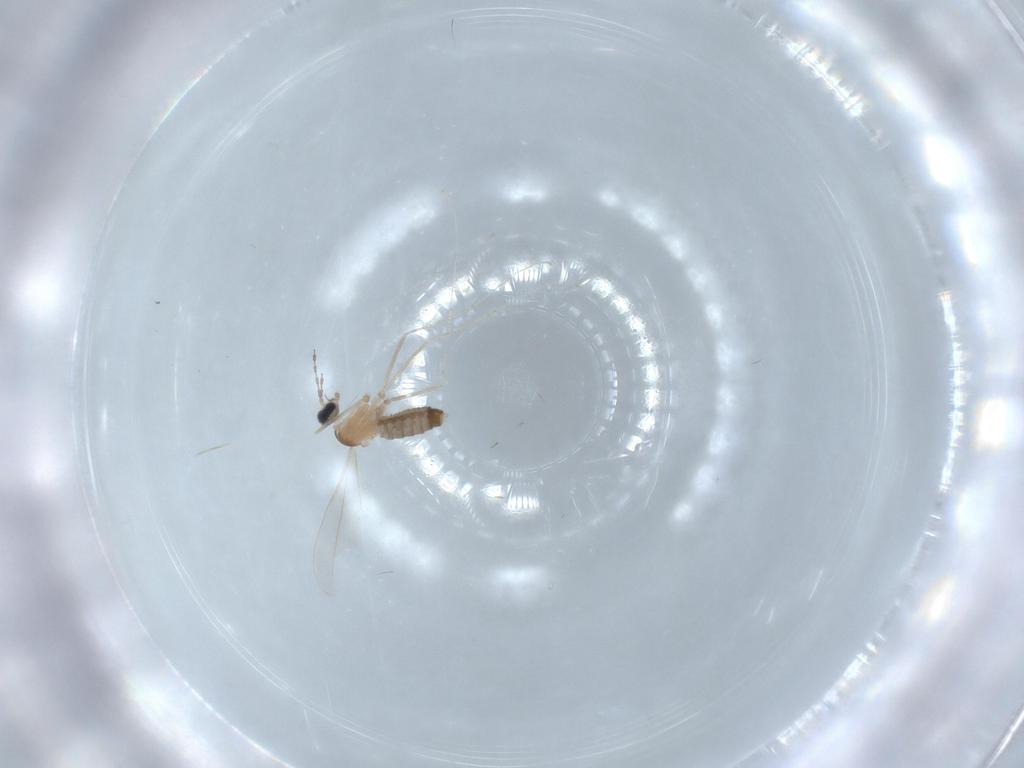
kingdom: Animalia
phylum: Arthropoda
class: Insecta
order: Diptera
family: Cecidomyiidae
